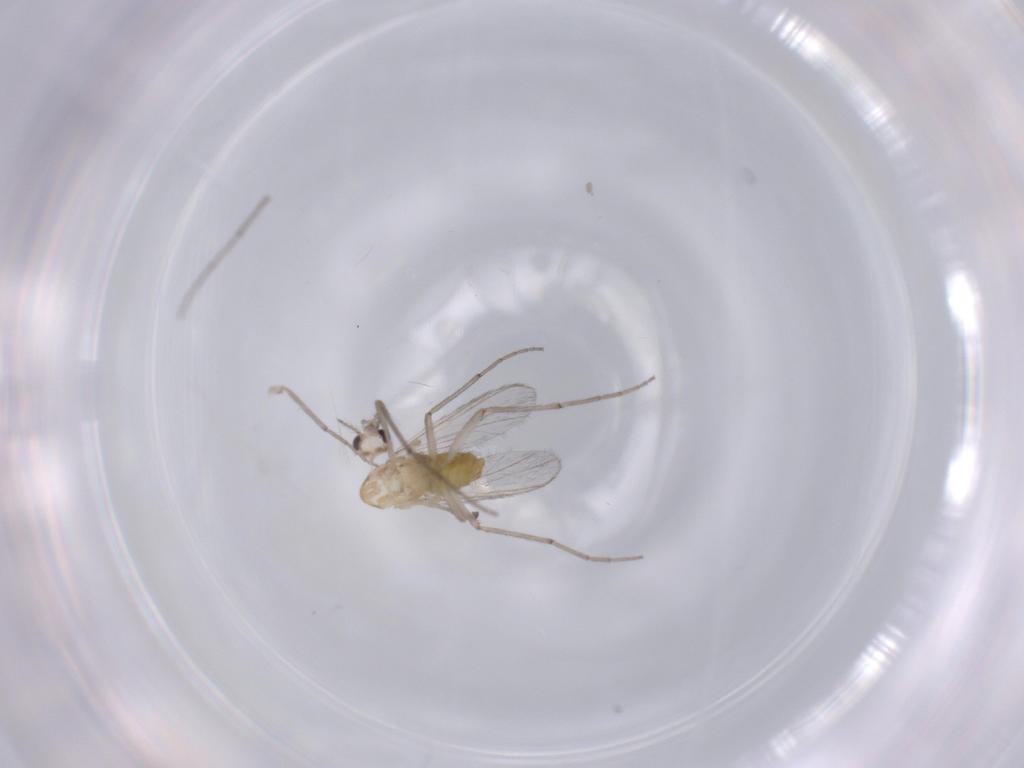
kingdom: Animalia
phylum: Arthropoda
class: Insecta
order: Diptera
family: Chironomidae
